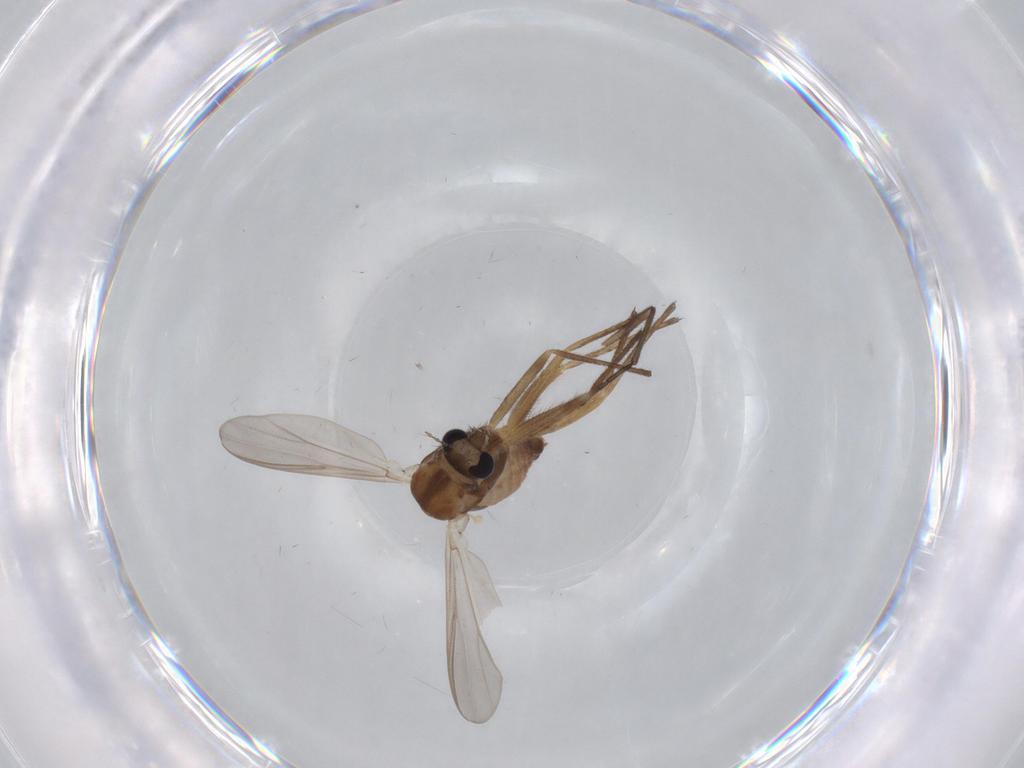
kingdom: Animalia
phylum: Arthropoda
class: Insecta
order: Diptera
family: Chironomidae
